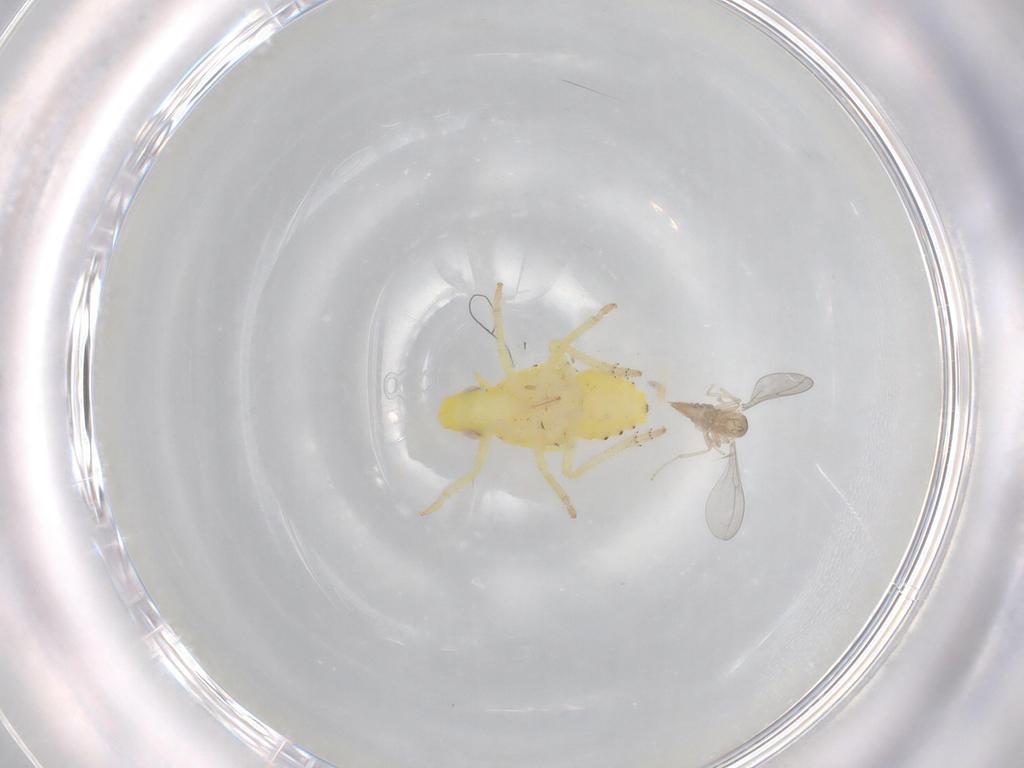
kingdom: Animalia
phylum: Arthropoda
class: Insecta
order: Hemiptera
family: Tropiduchidae
